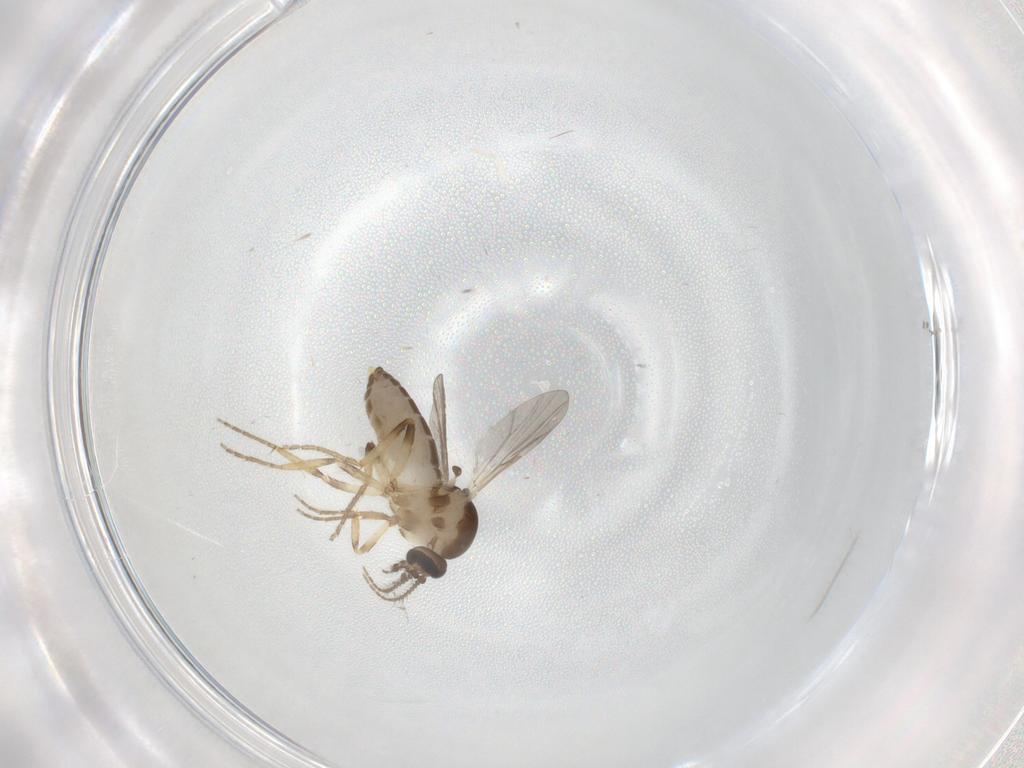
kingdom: Animalia
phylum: Arthropoda
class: Insecta
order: Diptera
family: Ceratopogonidae
